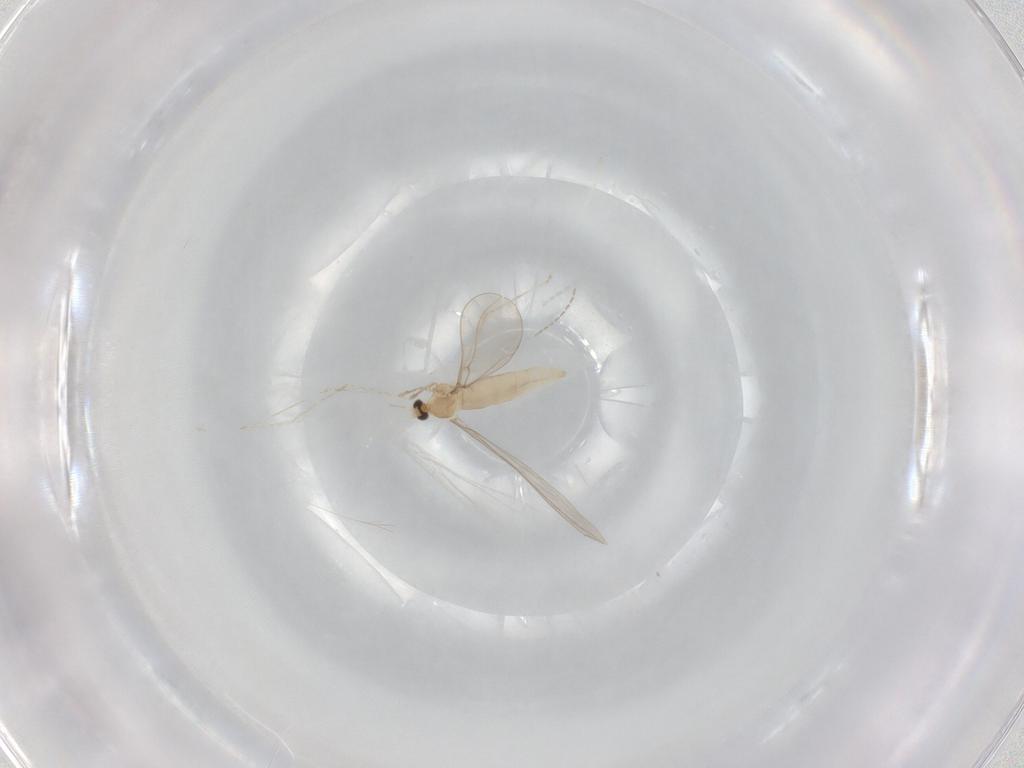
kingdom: Animalia
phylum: Arthropoda
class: Insecta
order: Diptera
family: Cecidomyiidae
